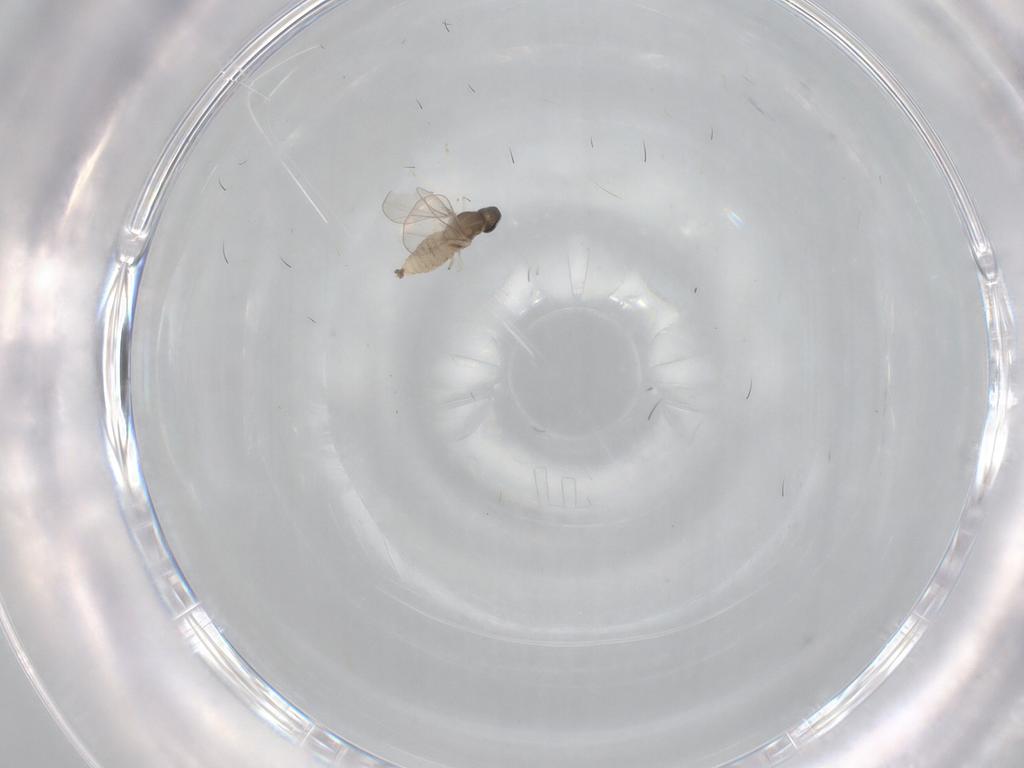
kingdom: Animalia
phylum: Arthropoda
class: Insecta
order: Diptera
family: Cecidomyiidae
